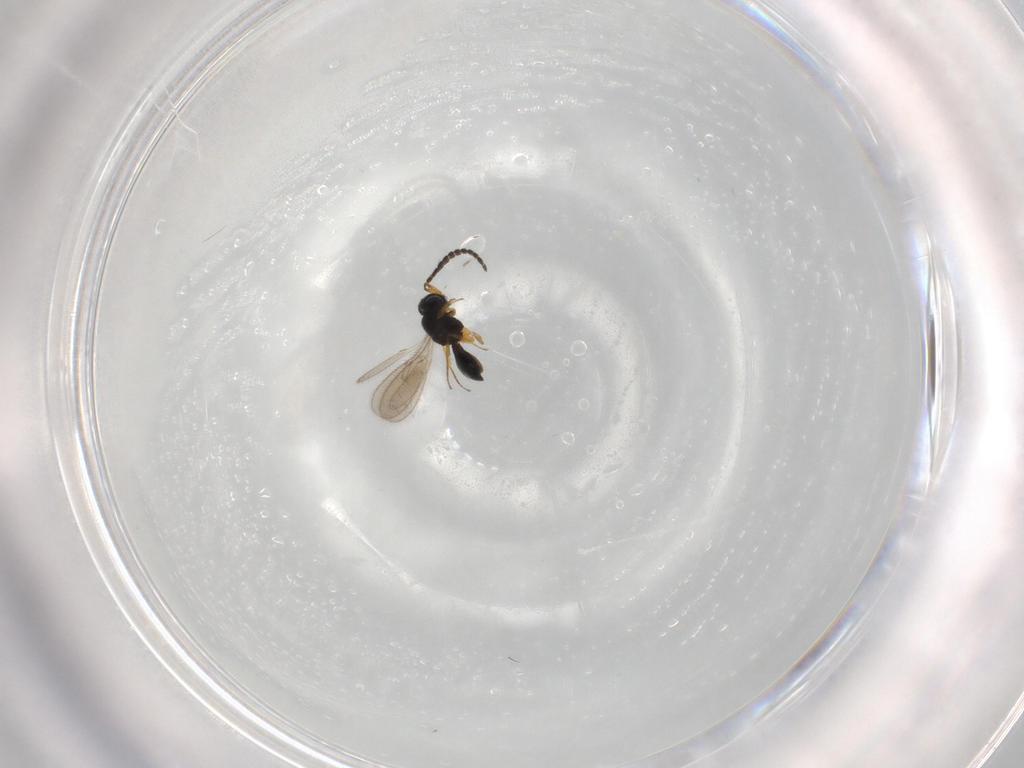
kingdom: Animalia
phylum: Arthropoda
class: Insecta
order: Hymenoptera
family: Scelionidae
